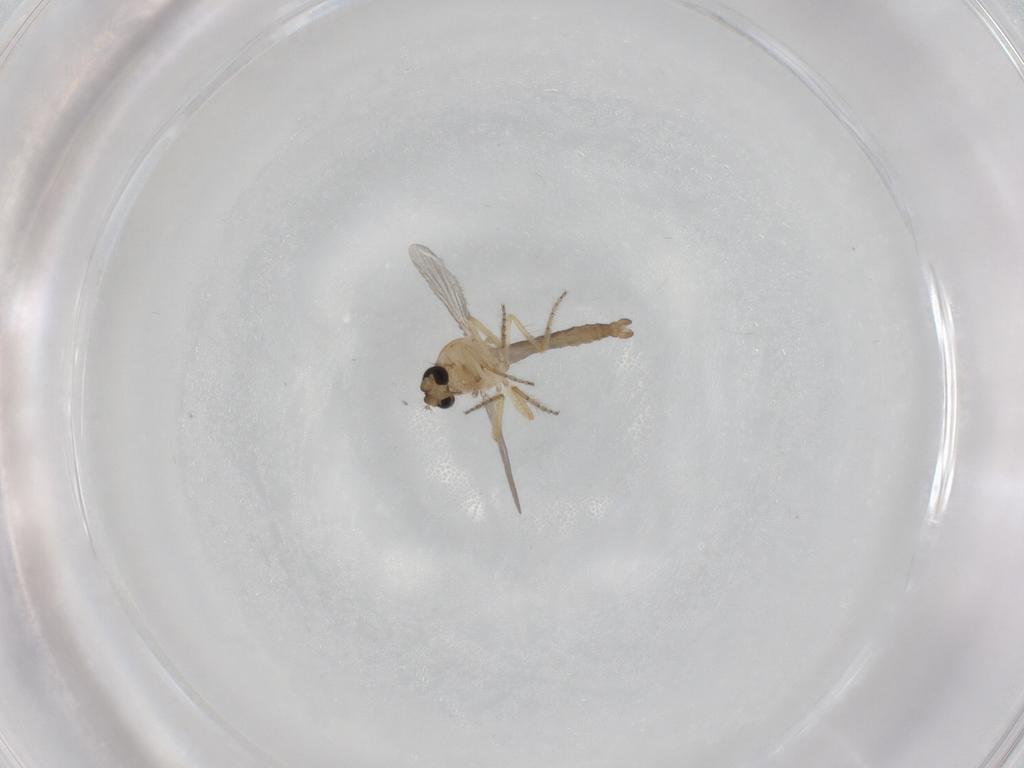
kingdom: Animalia
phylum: Arthropoda
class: Insecta
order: Diptera
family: Ceratopogonidae
